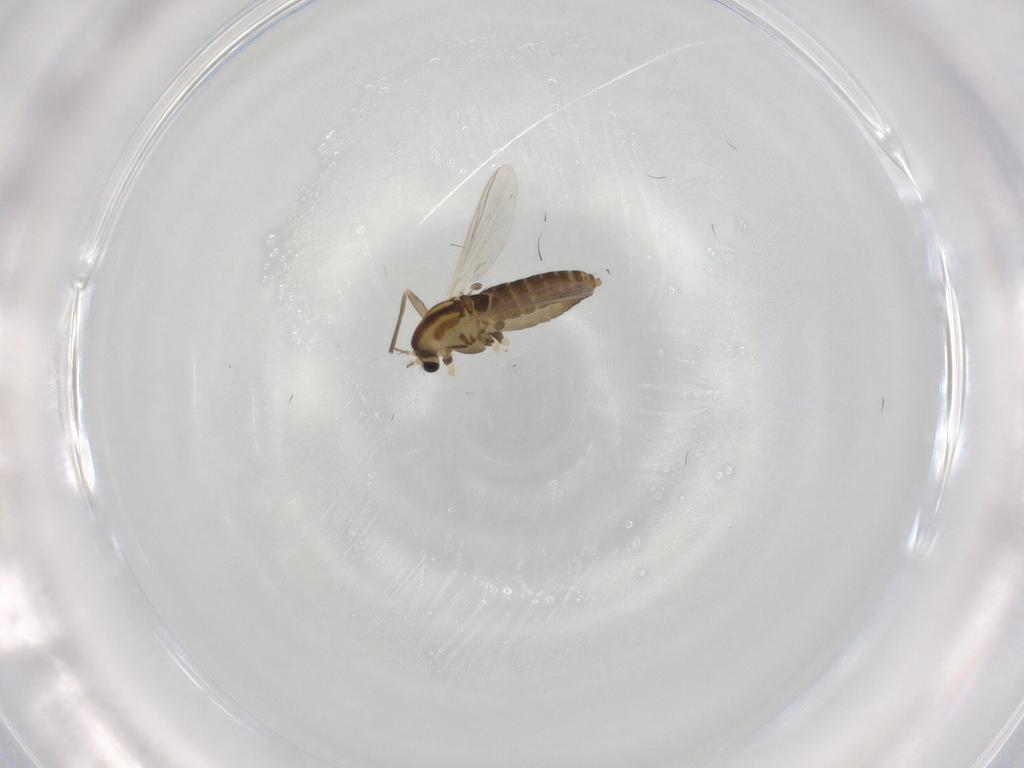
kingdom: Animalia
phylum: Arthropoda
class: Insecta
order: Diptera
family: Chironomidae
